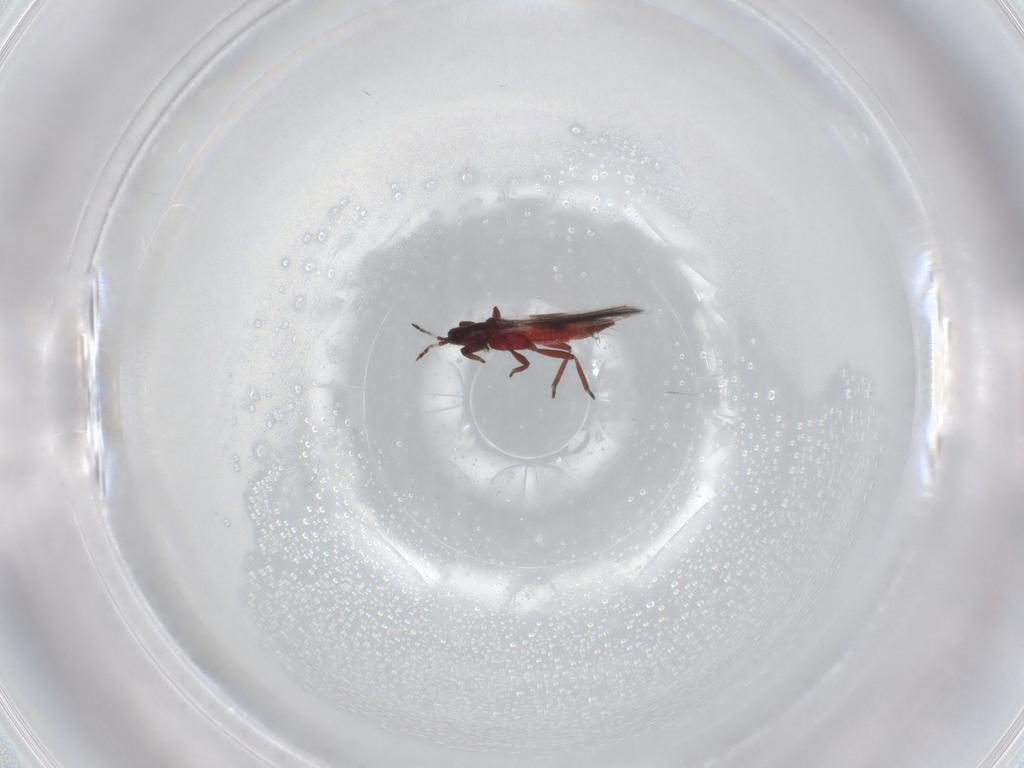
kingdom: Animalia
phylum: Arthropoda
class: Insecta
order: Thysanoptera
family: Aeolothripidae
